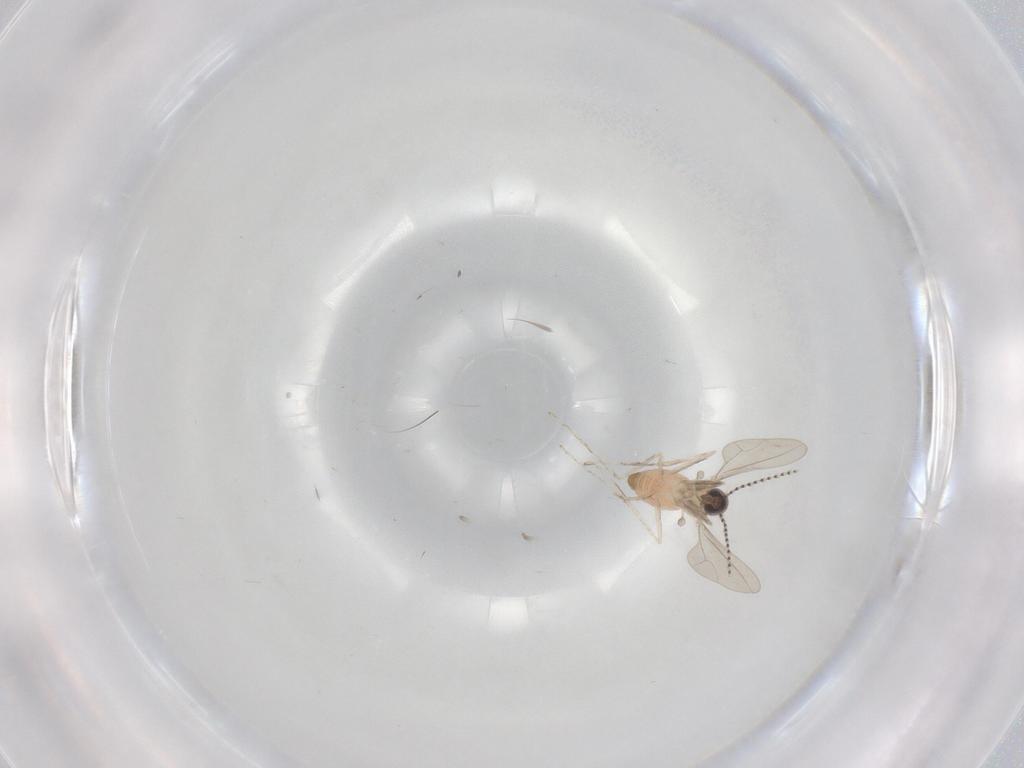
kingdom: Animalia
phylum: Arthropoda
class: Insecta
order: Diptera
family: Cecidomyiidae
